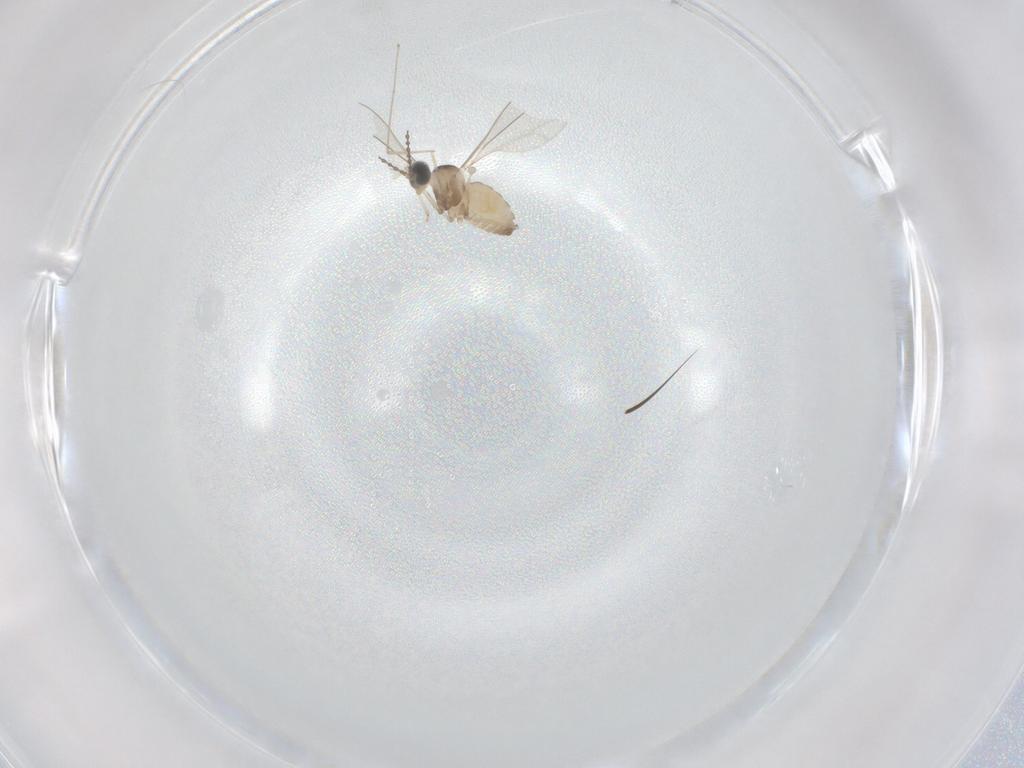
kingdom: Animalia
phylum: Arthropoda
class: Insecta
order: Diptera
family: Cecidomyiidae
